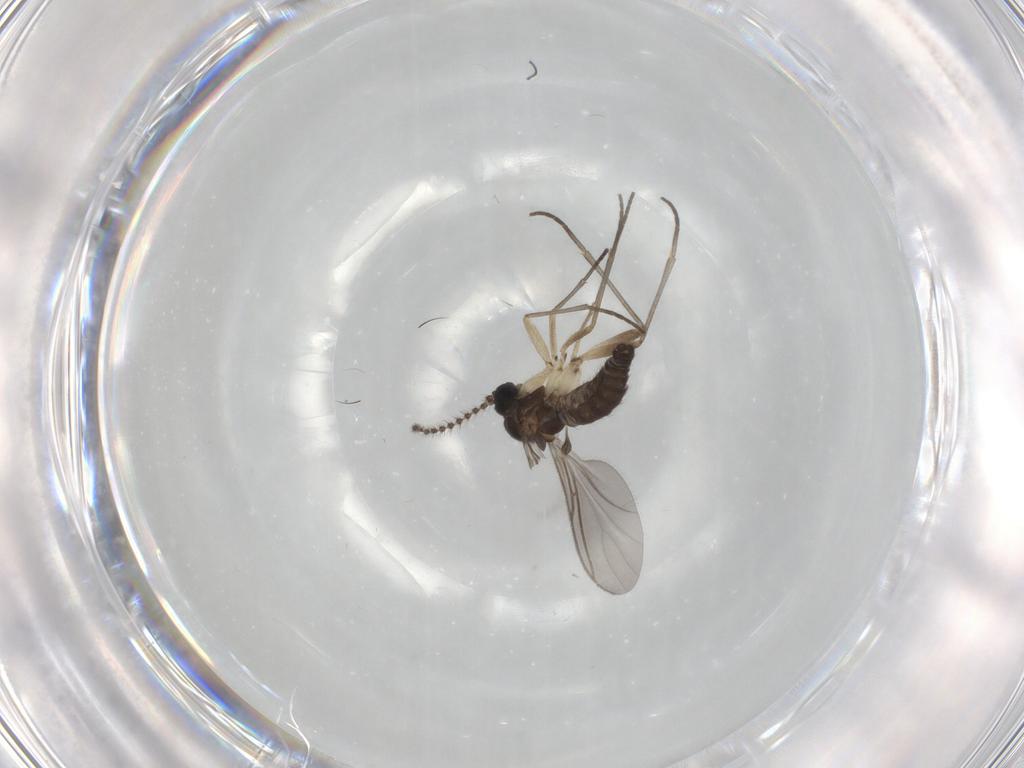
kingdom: Animalia
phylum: Arthropoda
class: Insecta
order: Diptera
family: Sciaridae
